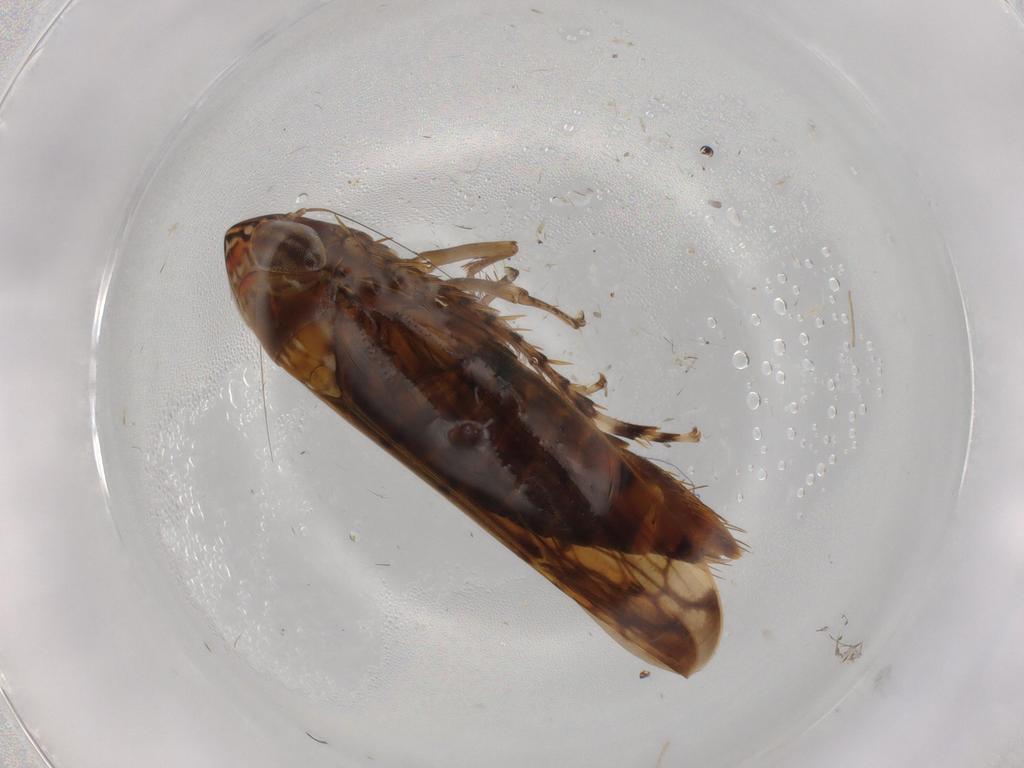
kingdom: Animalia
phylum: Arthropoda
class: Insecta
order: Hemiptera
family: Cicadellidae
